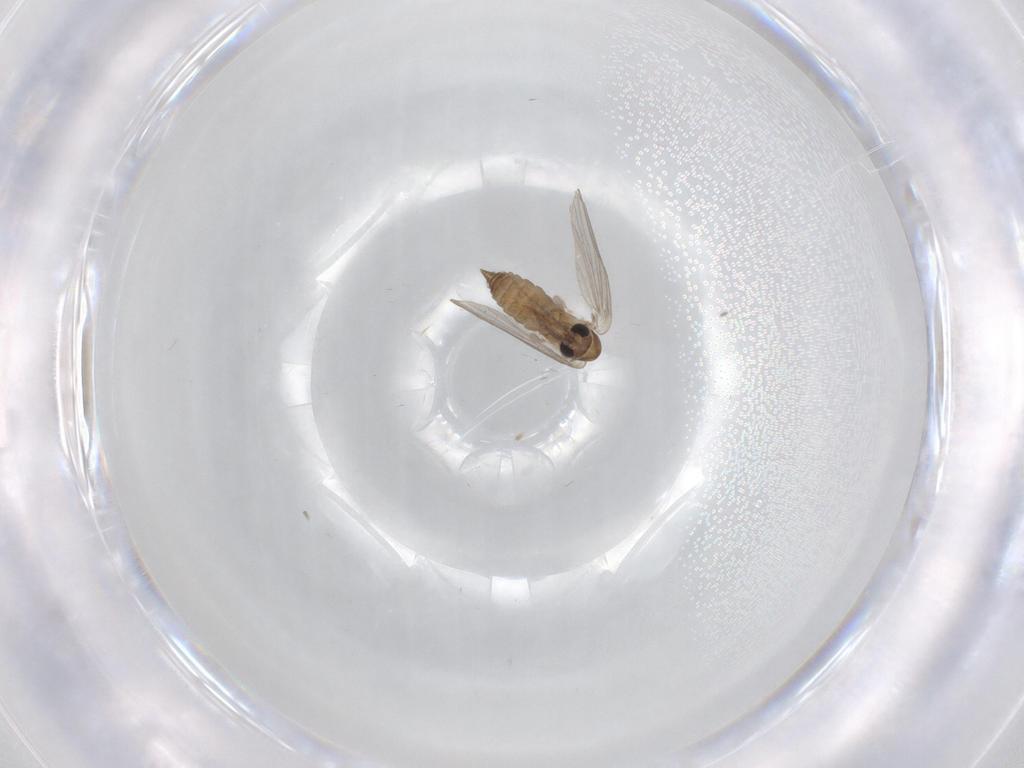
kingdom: Animalia
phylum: Arthropoda
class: Insecta
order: Diptera
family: Psychodidae
